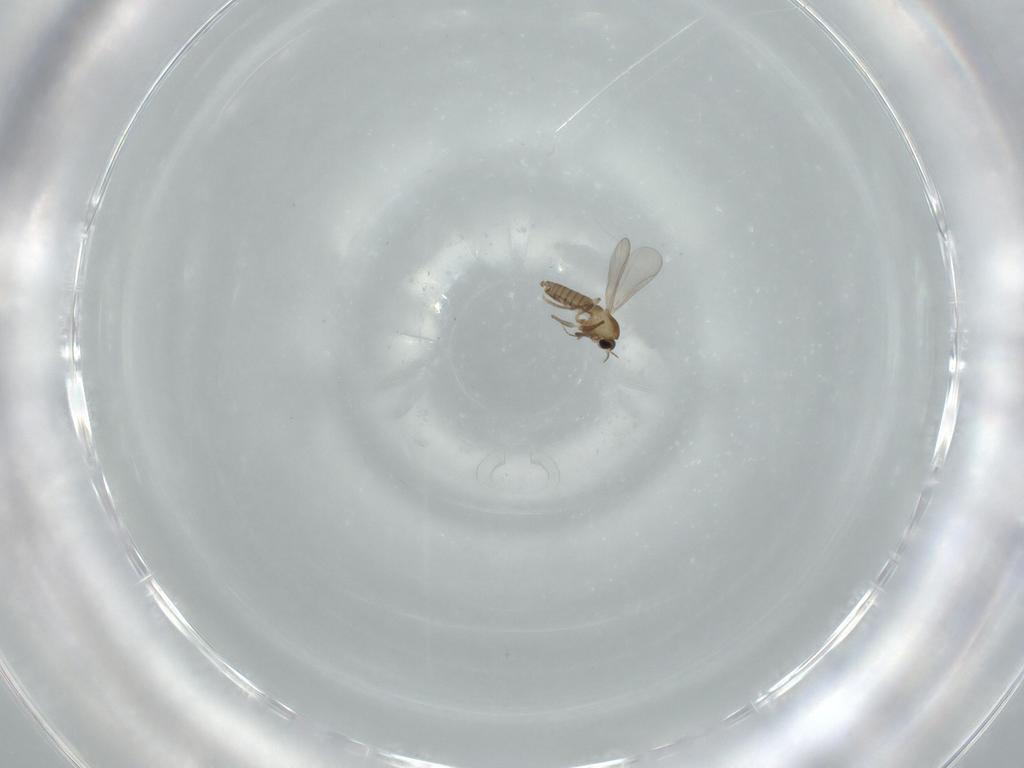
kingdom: Animalia
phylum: Arthropoda
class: Insecta
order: Diptera
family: Chironomidae
